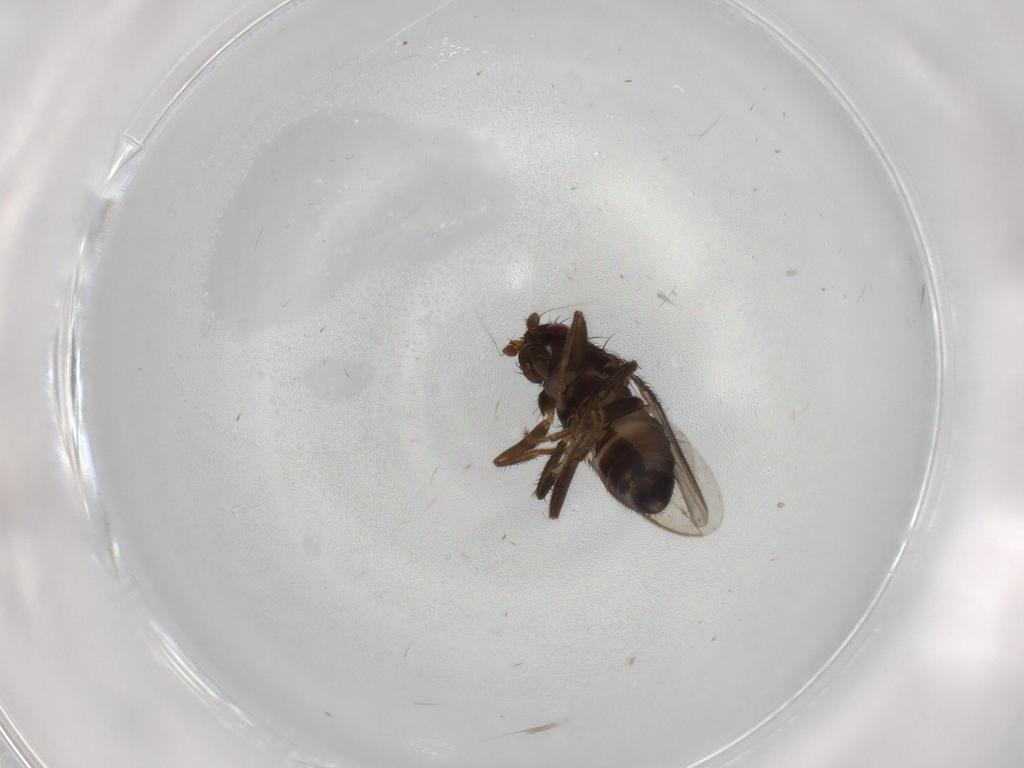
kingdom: Animalia
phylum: Arthropoda
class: Insecta
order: Diptera
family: Sphaeroceridae
